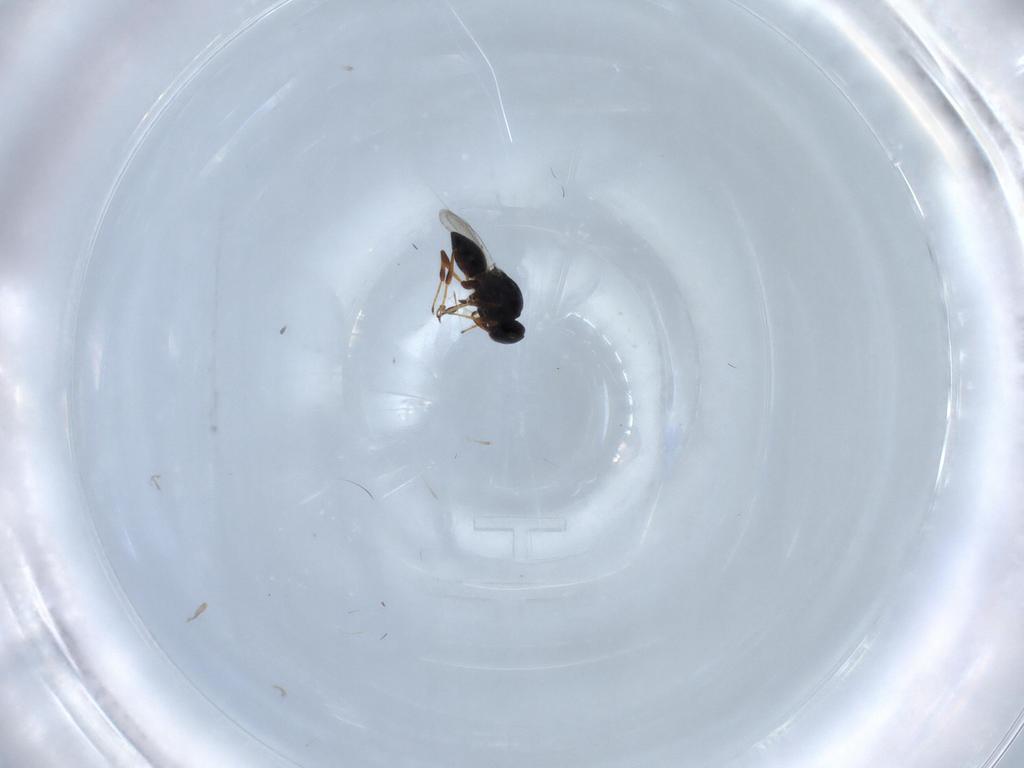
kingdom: Animalia
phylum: Arthropoda
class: Insecta
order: Hymenoptera
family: Platygastridae
